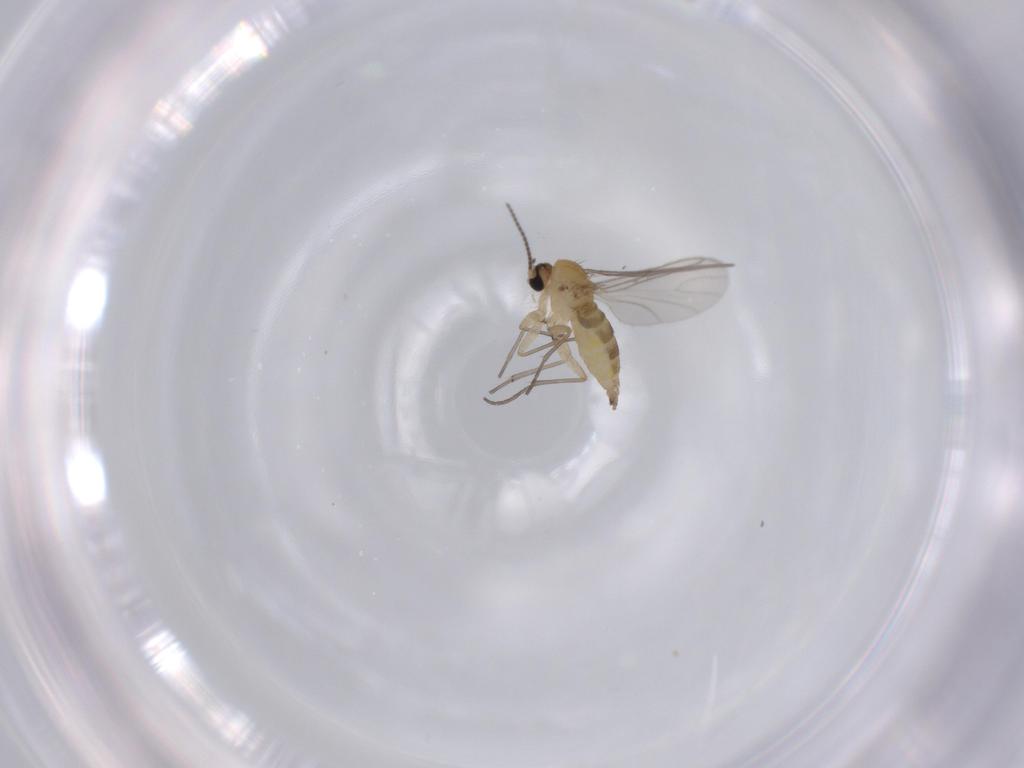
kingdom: Animalia
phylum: Arthropoda
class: Insecta
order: Diptera
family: Sciaridae
